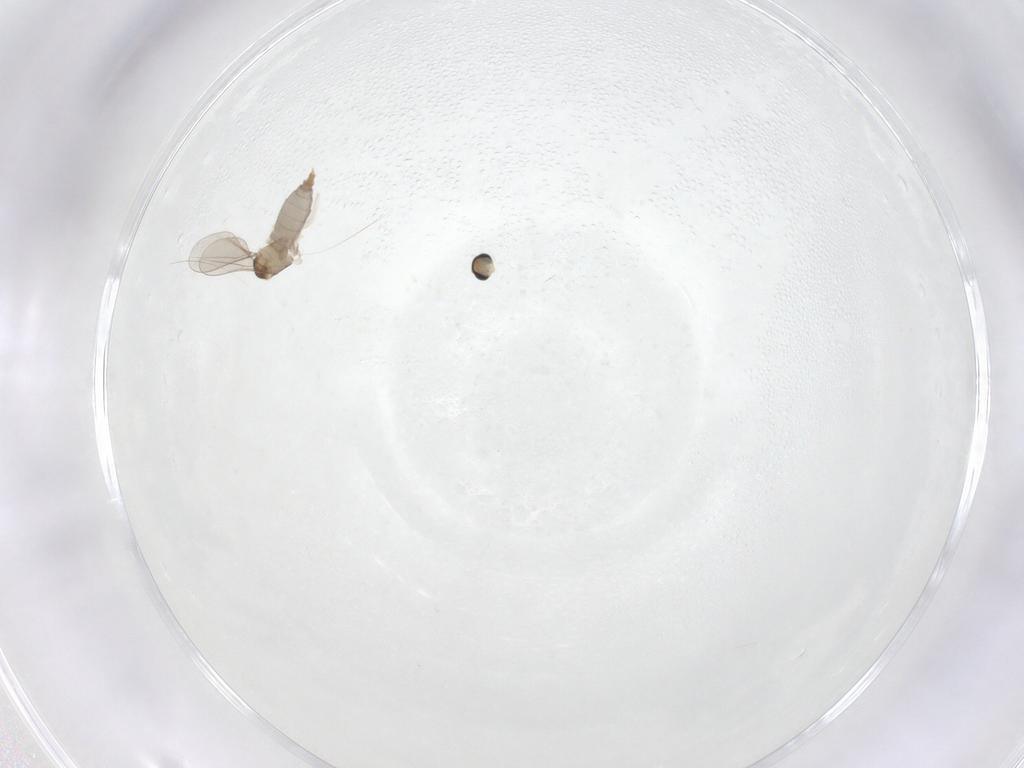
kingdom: Animalia
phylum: Arthropoda
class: Insecta
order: Diptera
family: Cecidomyiidae
